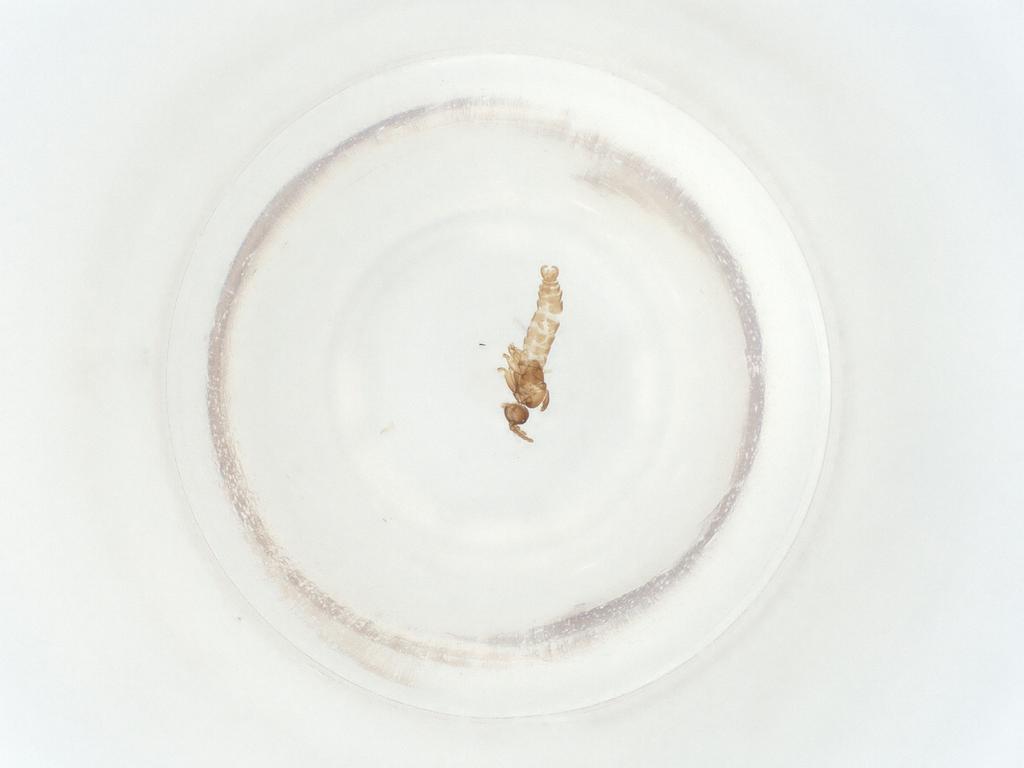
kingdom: Animalia
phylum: Arthropoda
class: Insecta
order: Diptera
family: Sciaridae
